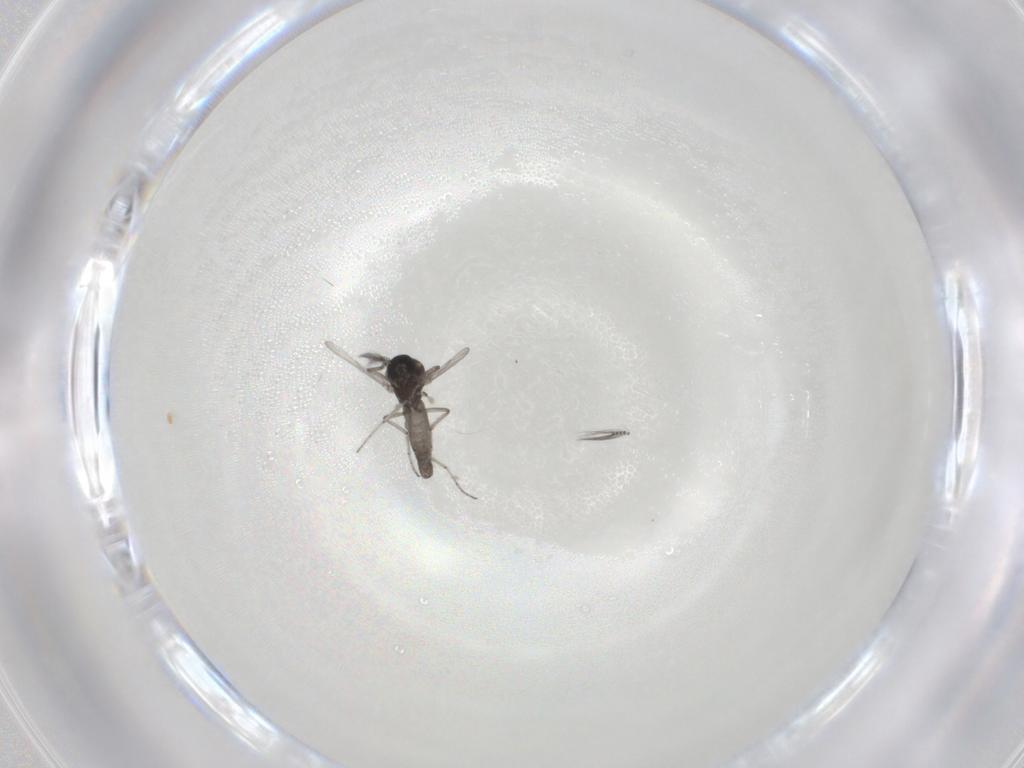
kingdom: Animalia
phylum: Arthropoda
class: Insecta
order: Diptera
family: Ceratopogonidae
